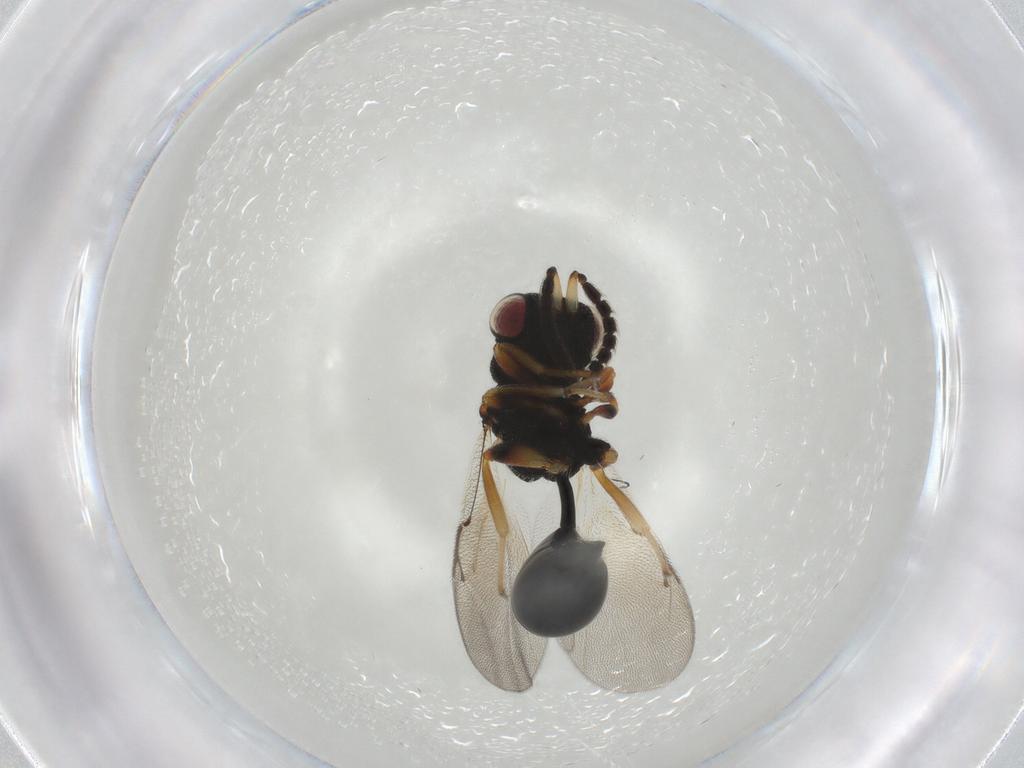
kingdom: Animalia
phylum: Arthropoda
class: Insecta
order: Hymenoptera
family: Eurytomidae
